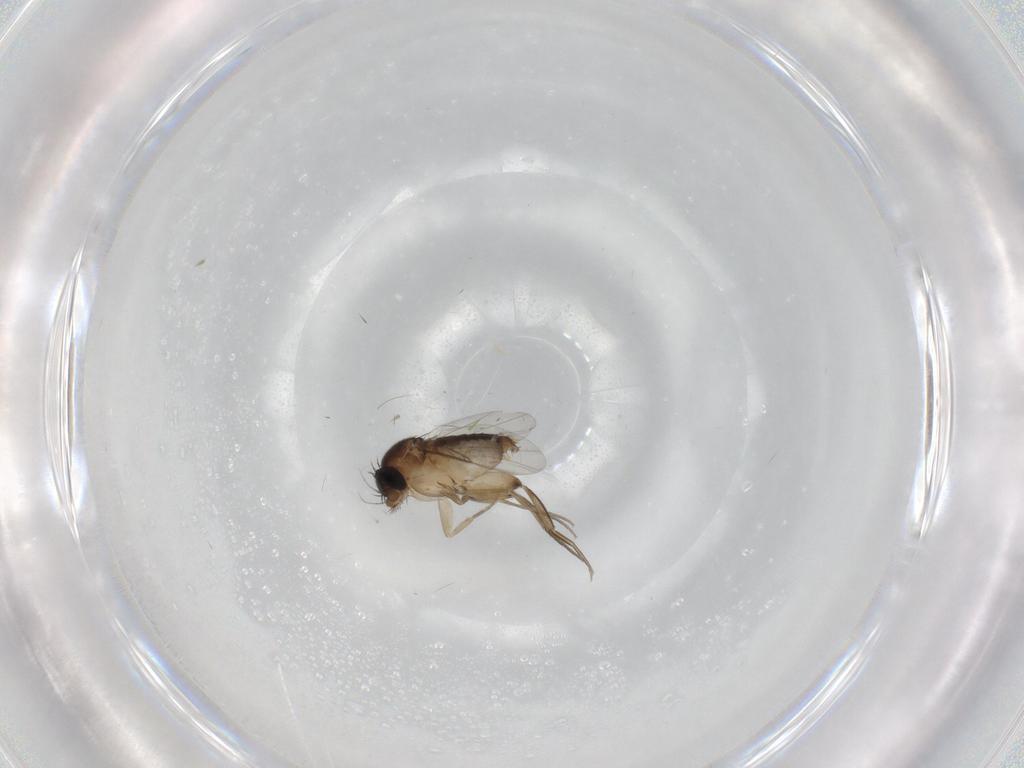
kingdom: Animalia
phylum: Arthropoda
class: Insecta
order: Diptera
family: Phoridae
